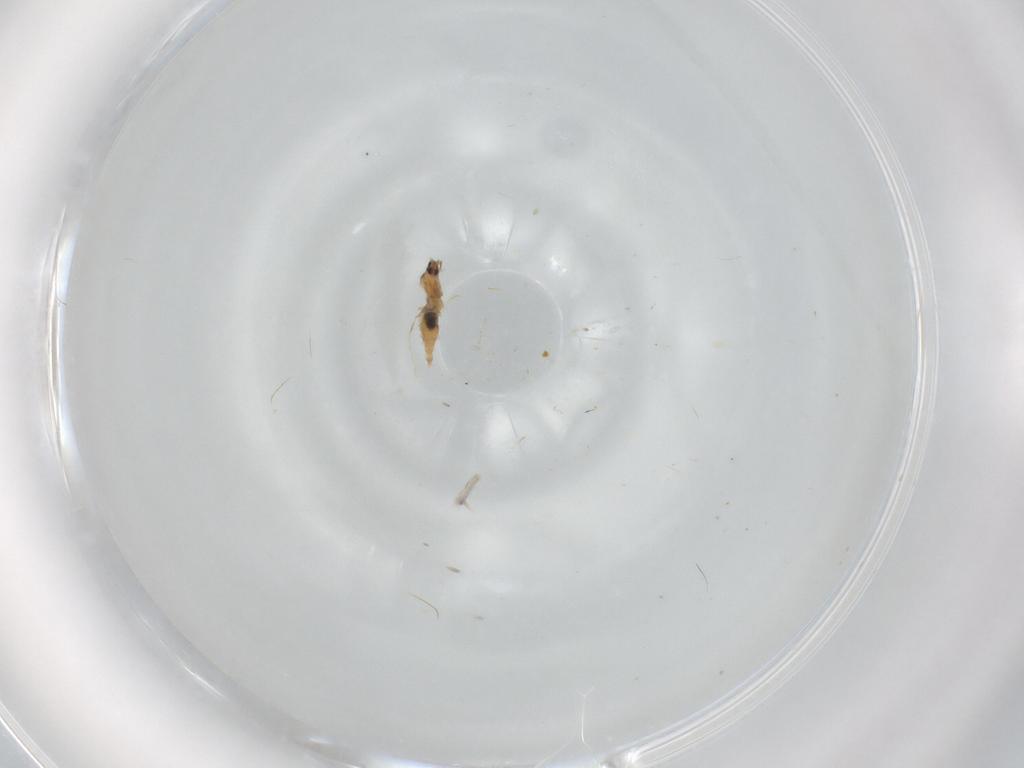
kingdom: Animalia
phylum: Arthropoda
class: Insecta
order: Diptera
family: Cecidomyiidae
